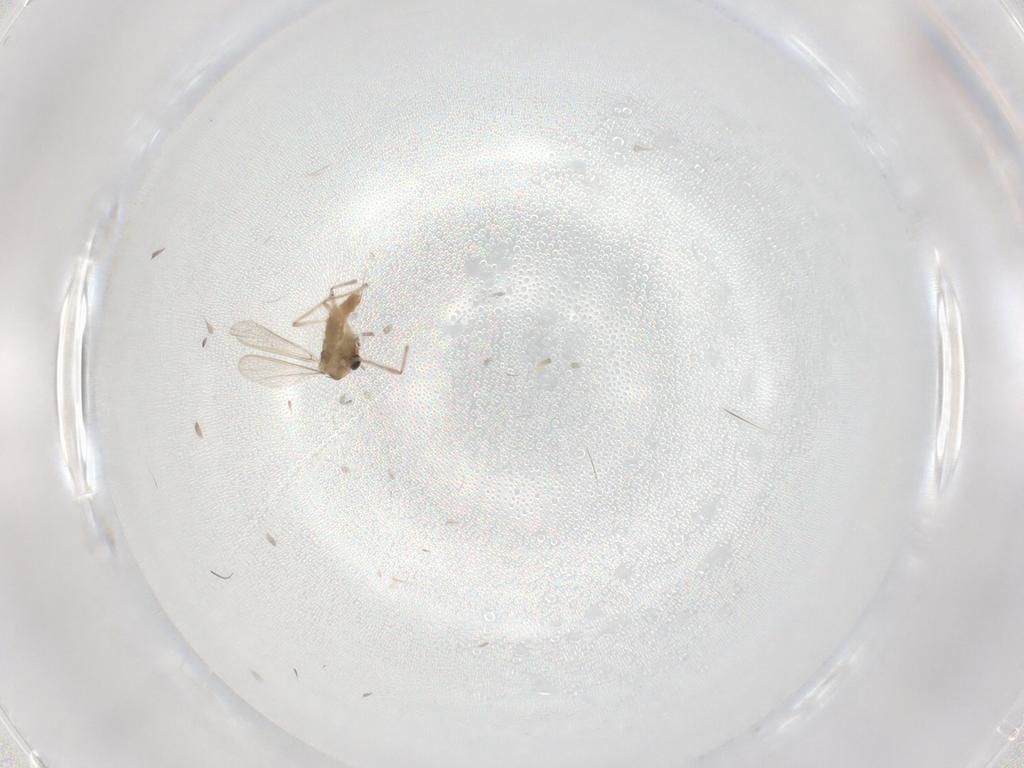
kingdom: Animalia
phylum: Arthropoda
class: Insecta
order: Diptera
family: Chironomidae
